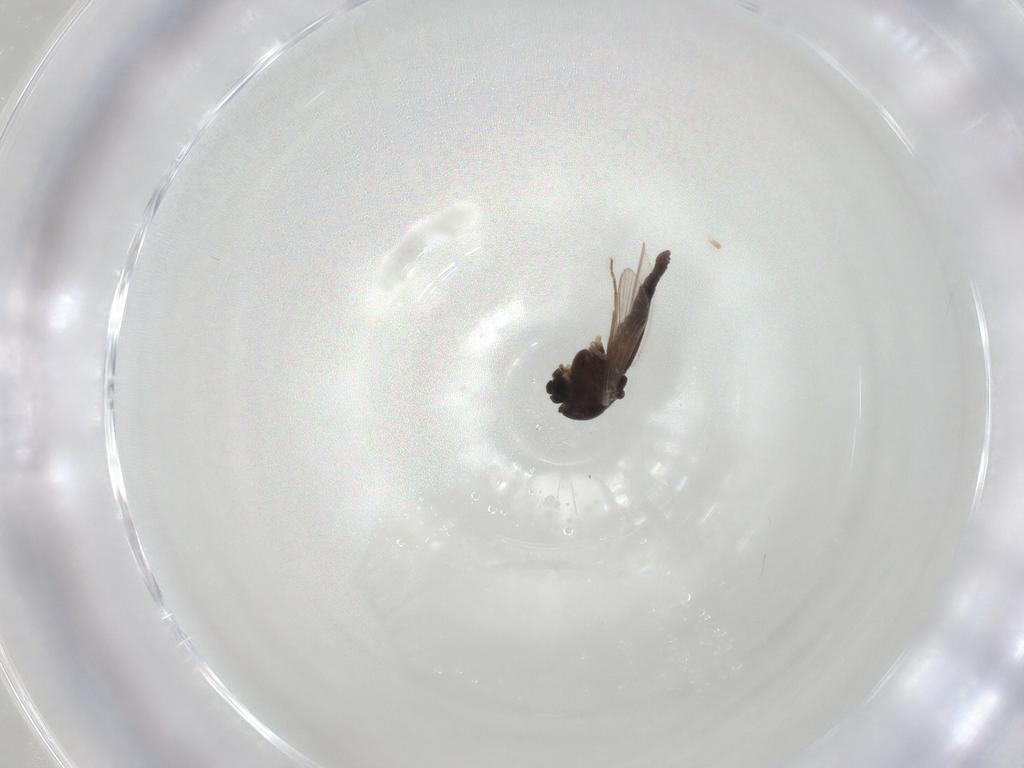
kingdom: Animalia
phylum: Arthropoda
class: Insecta
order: Diptera
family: Chironomidae
